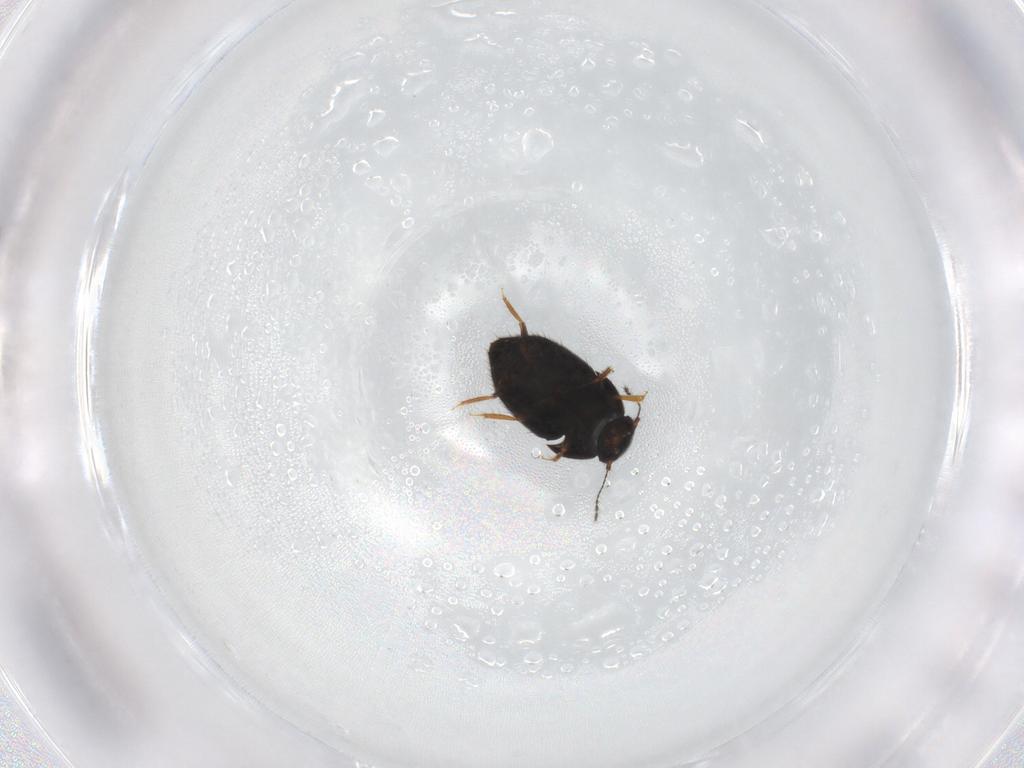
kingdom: Animalia
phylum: Arthropoda
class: Insecta
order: Coleoptera
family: Ptiliidae
